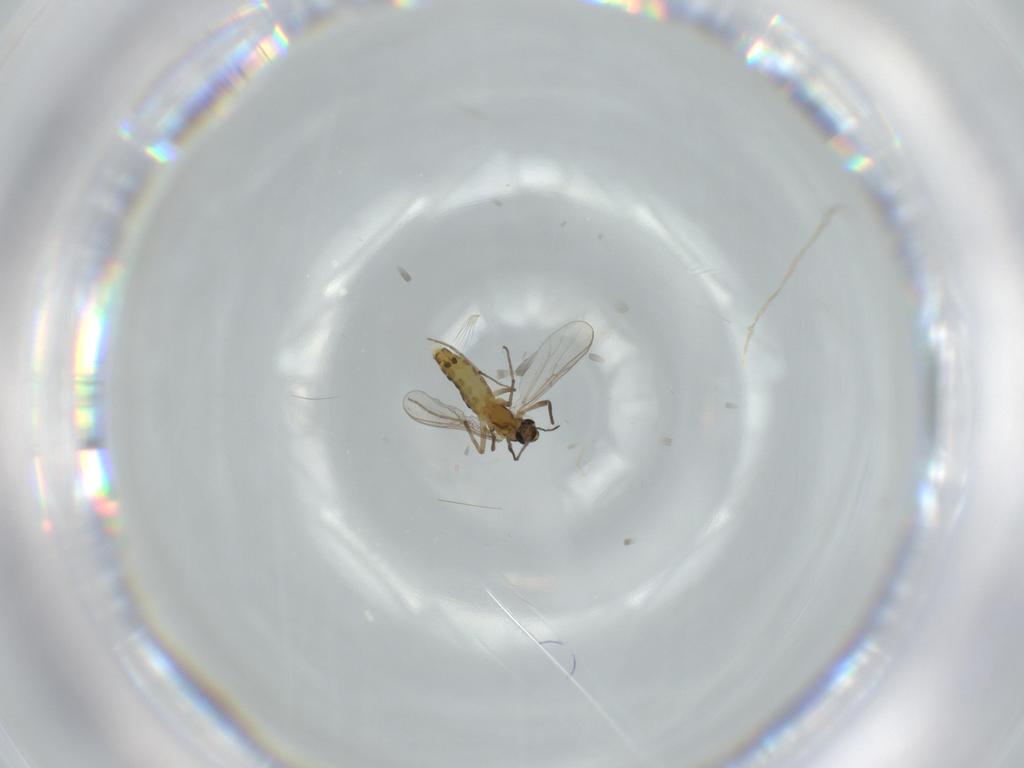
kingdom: Animalia
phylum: Arthropoda
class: Insecta
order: Diptera
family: Chironomidae
